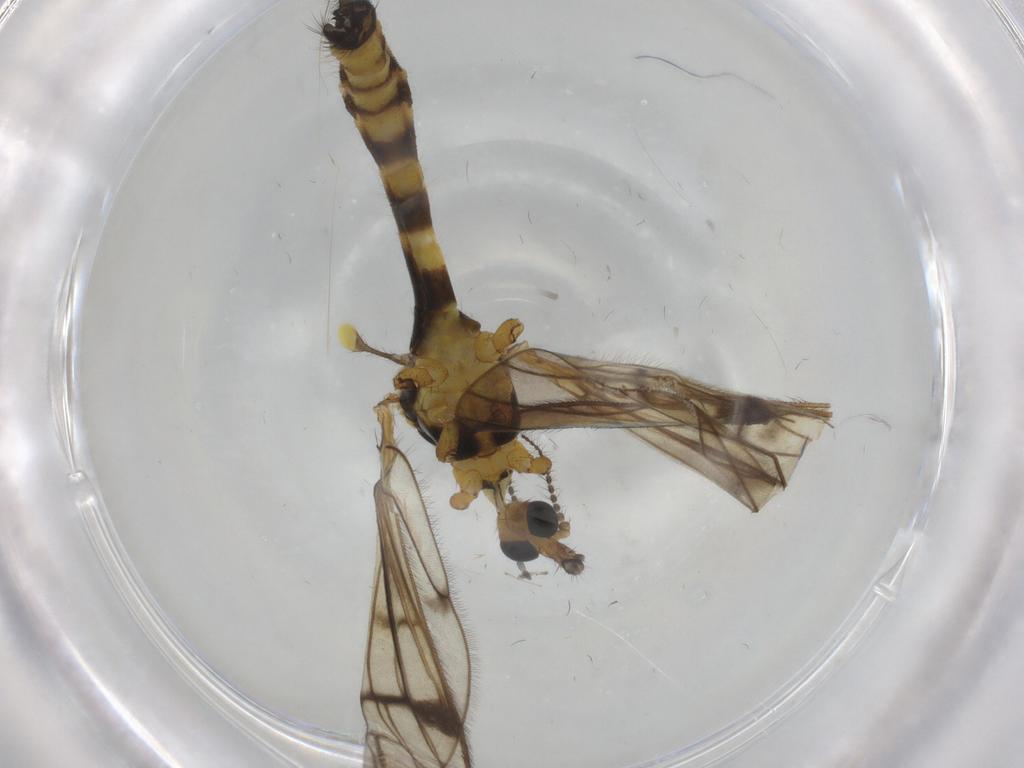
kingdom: Animalia
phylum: Arthropoda
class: Insecta
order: Diptera
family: Limoniidae
